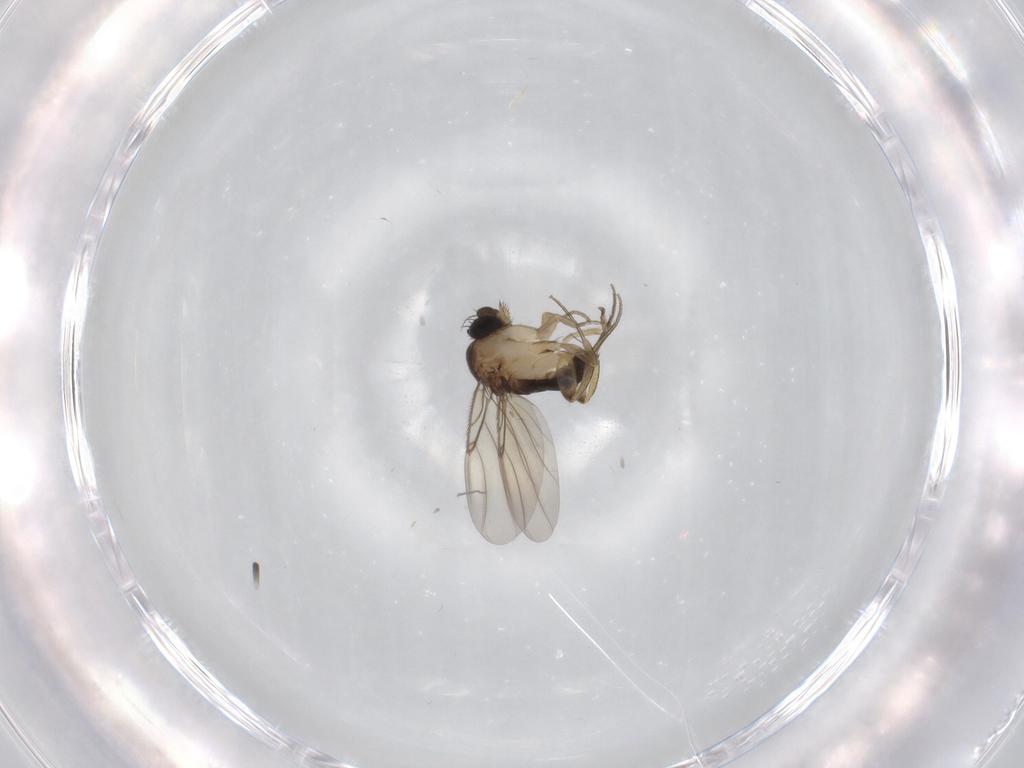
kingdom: Animalia
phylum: Arthropoda
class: Insecta
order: Diptera
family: Phoridae
